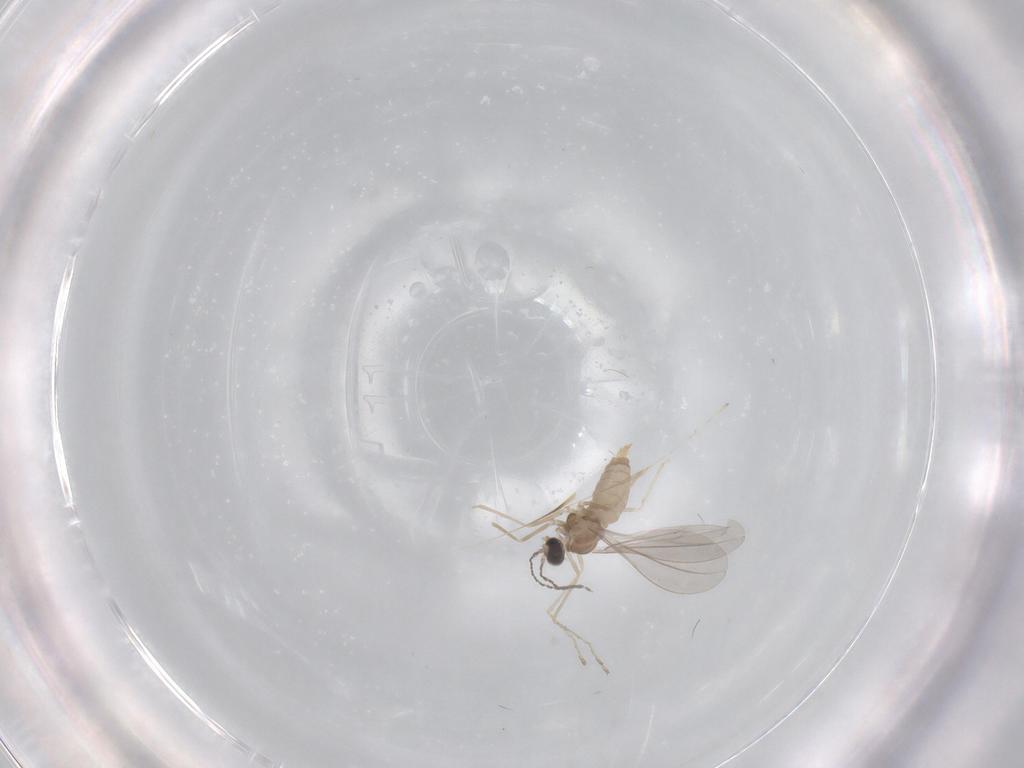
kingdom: Animalia
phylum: Arthropoda
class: Insecta
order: Diptera
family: Cecidomyiidae
